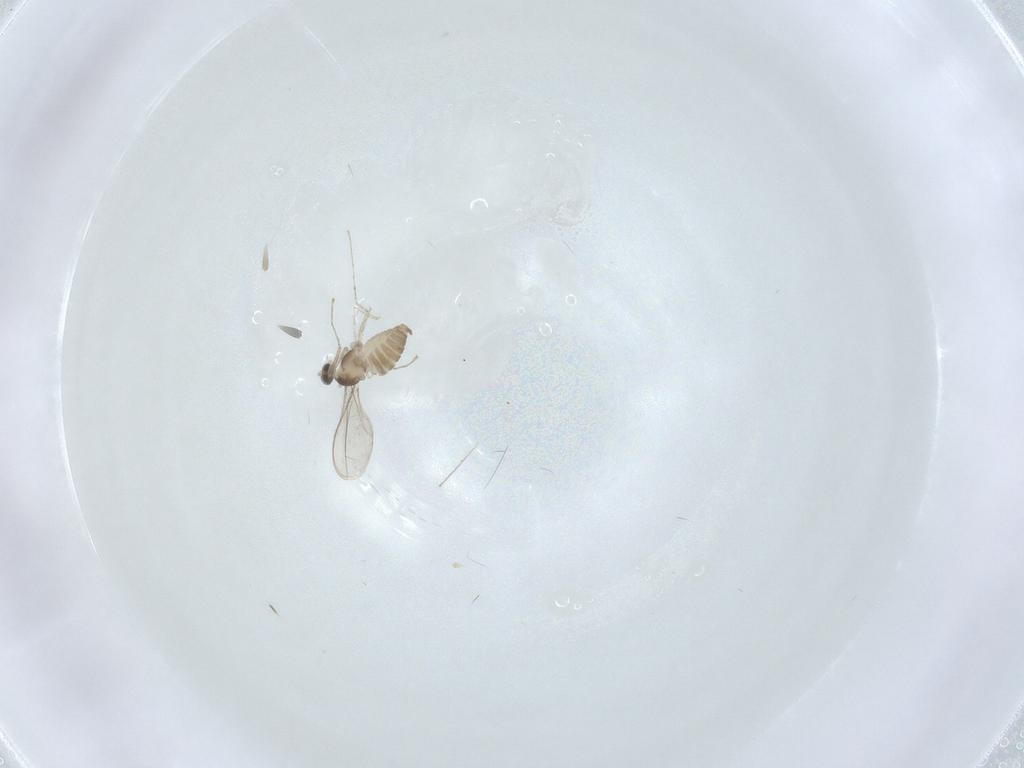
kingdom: Animalia
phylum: Arthropoda
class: Insecta
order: Diptera
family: Cecidomyiidae
